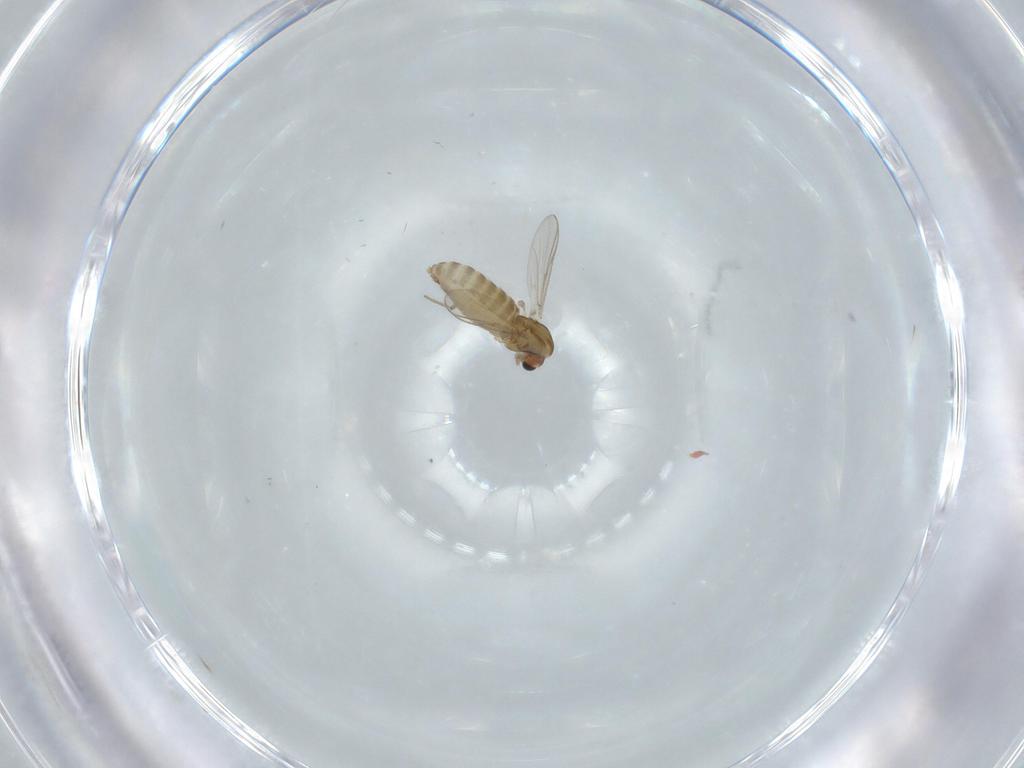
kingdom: Animalia
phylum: Arthropoda
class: Insecta
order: Diptera
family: Chironomidae
